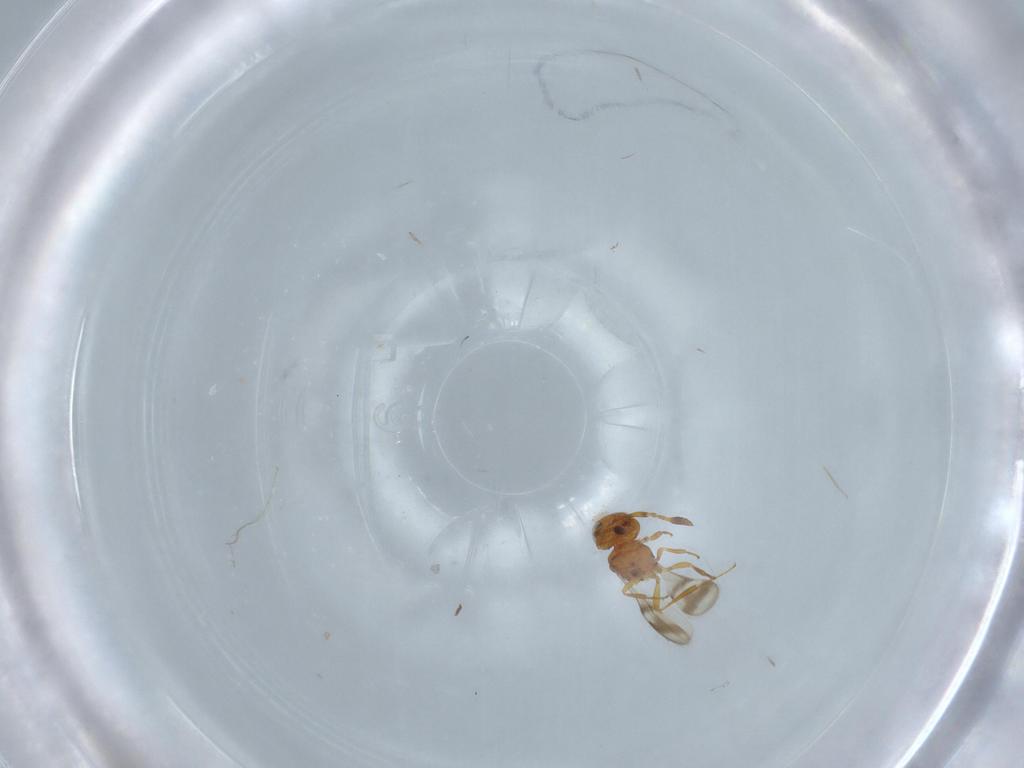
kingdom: Animalia
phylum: Arthropoda
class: Insecta
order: Hymenoptera
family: Scelionidae
